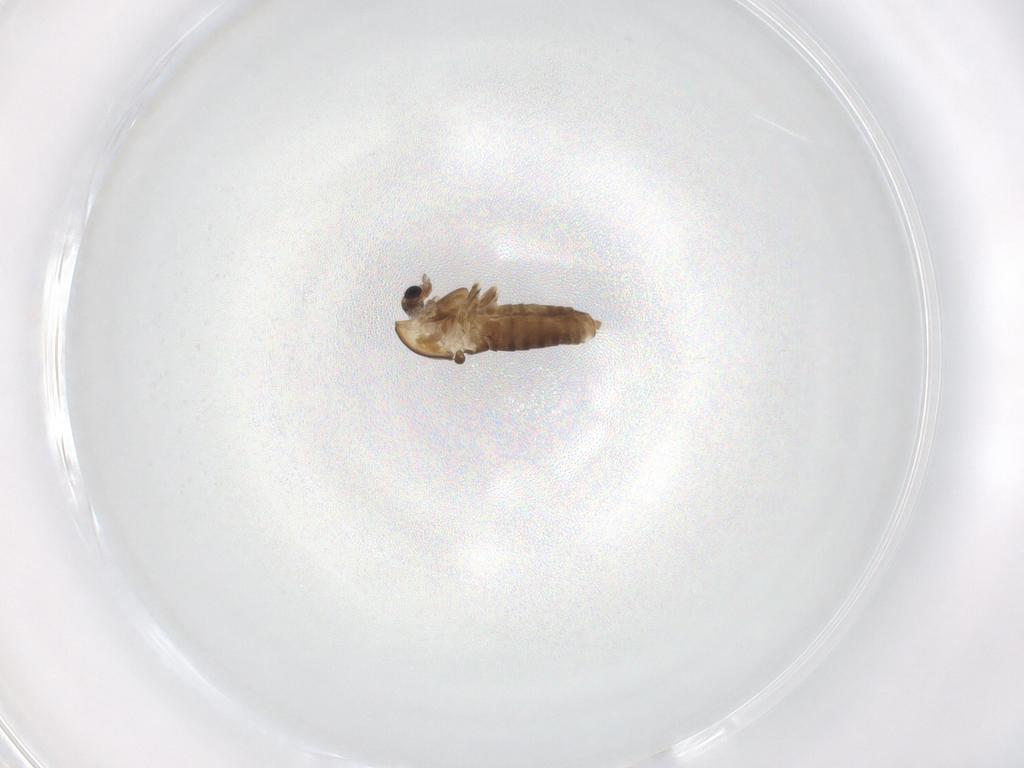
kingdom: Animalia
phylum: Arthropoda
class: Insecta
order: Diptera
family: Chironomidae
